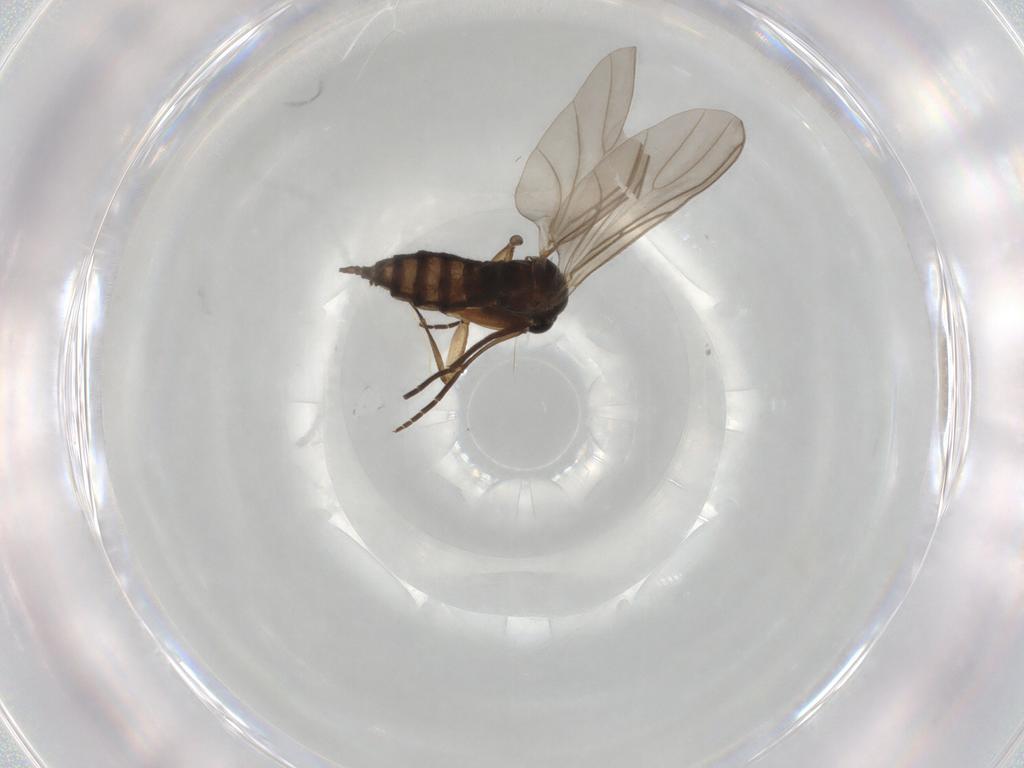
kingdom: Animalia
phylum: Arthropoda
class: Insecta
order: Diptera
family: Sciaridae
